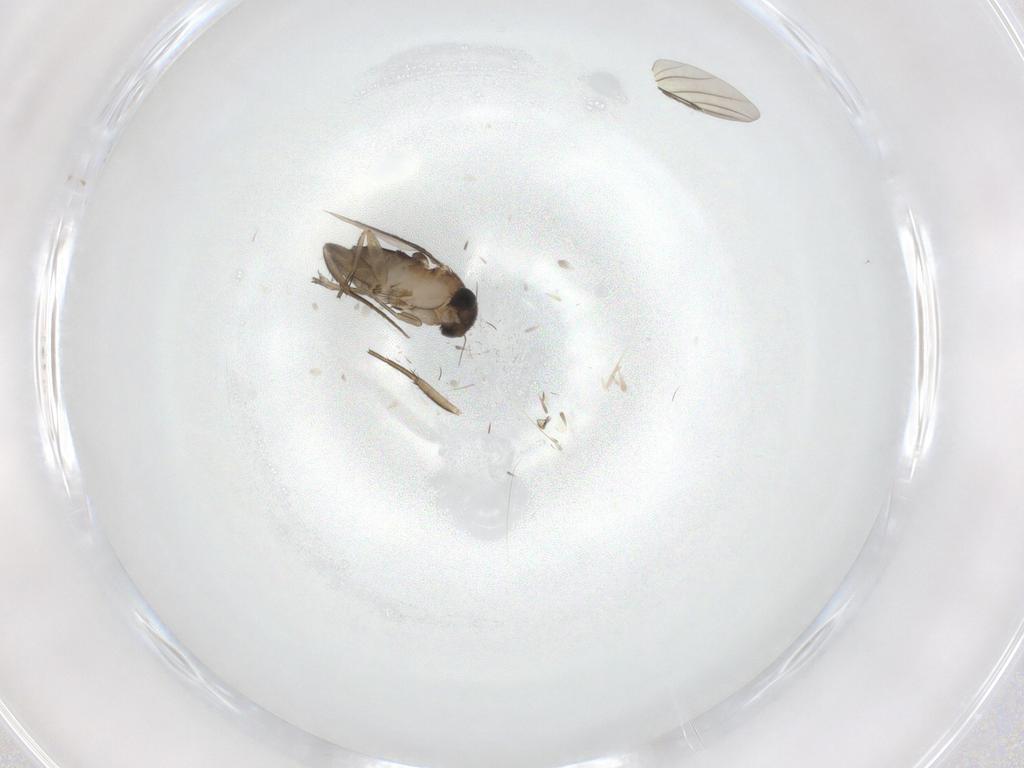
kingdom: Animalia
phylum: Arthropoda
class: Insecta
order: Diptera
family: Phoridae
